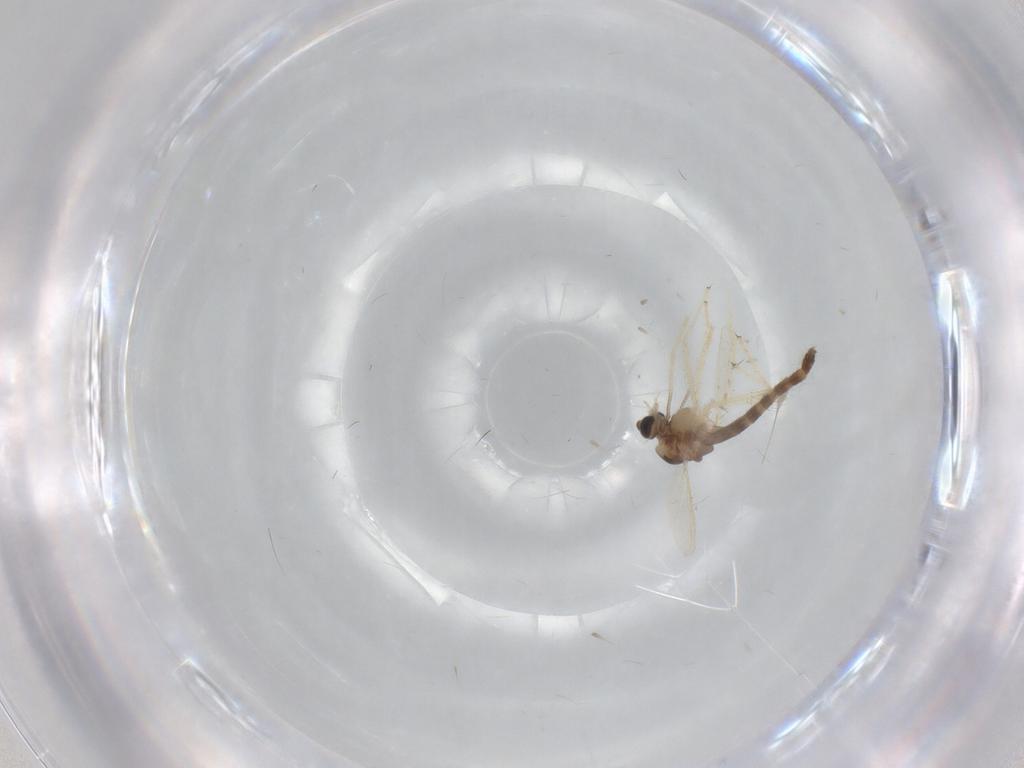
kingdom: Animalia
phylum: Arthropoda
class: Insecta
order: Diptera
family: Chironomidae
